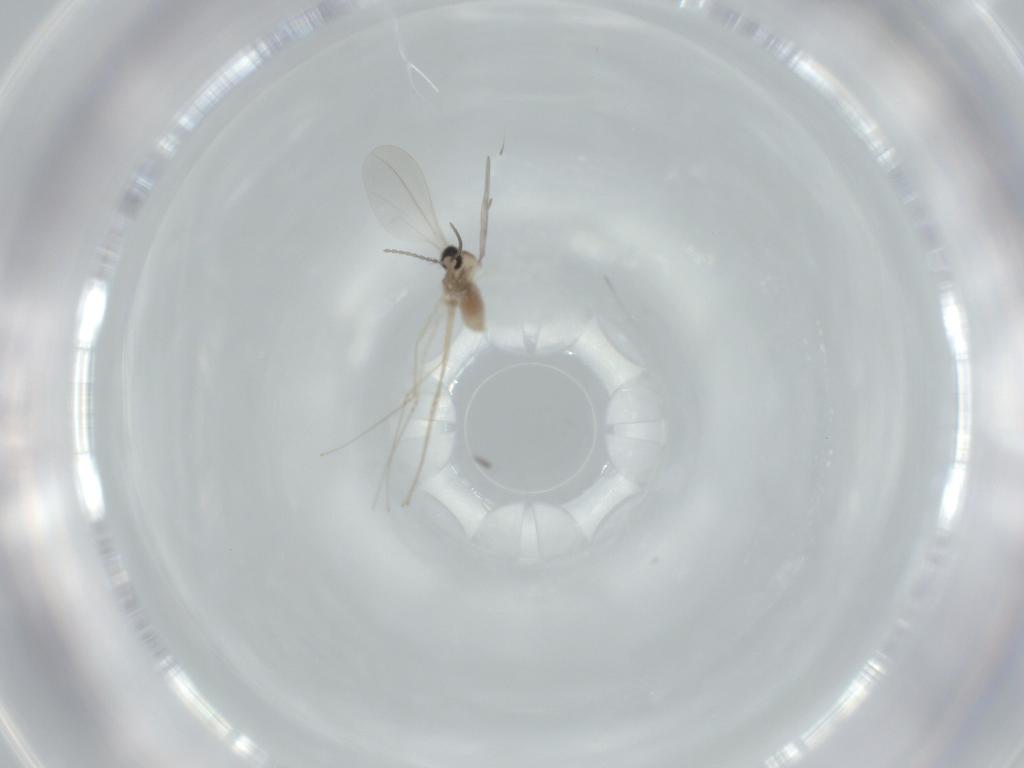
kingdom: Animalia
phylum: Arthropoda
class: Insecta
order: Diptera
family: Cecidomyiidae
